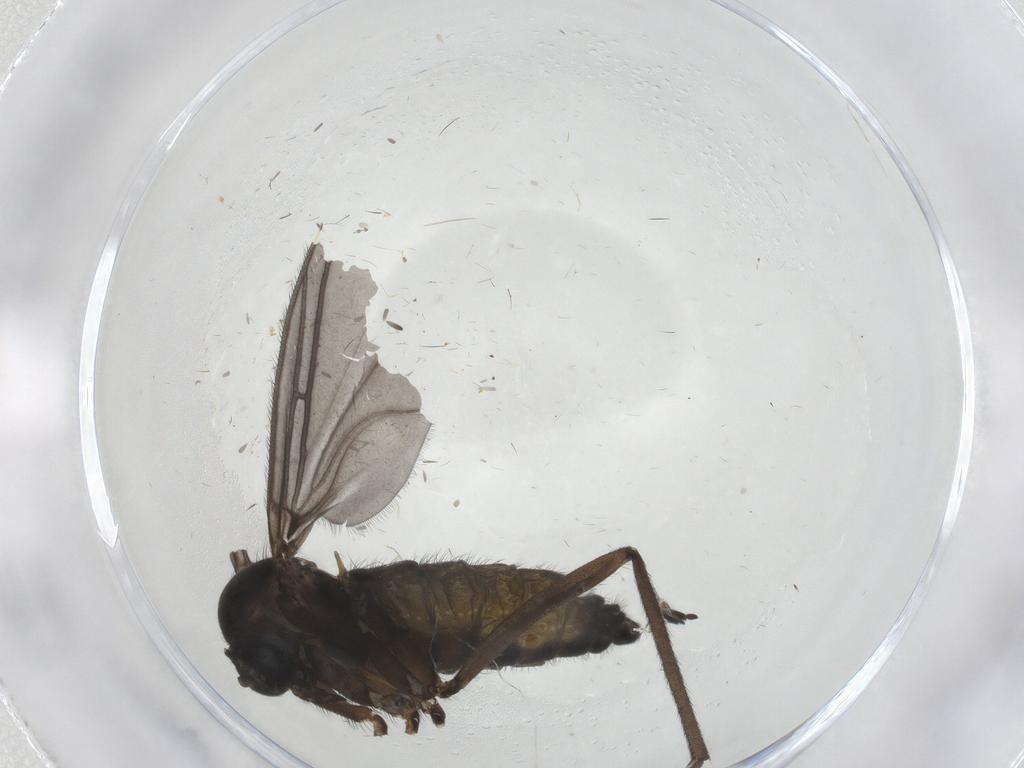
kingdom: Animalia
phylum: Arthropoda
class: Insecta
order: Diptera
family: Sciaridae
